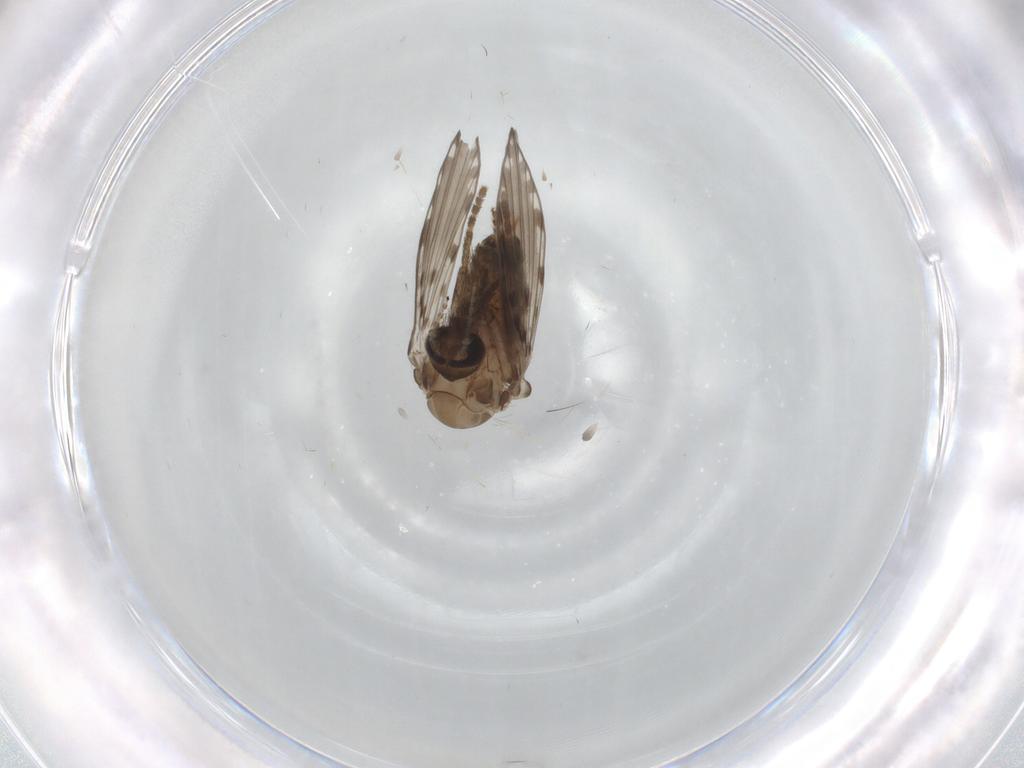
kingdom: Animalia
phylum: Arthropoda
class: Insecta
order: Diptera
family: Psychodidae
